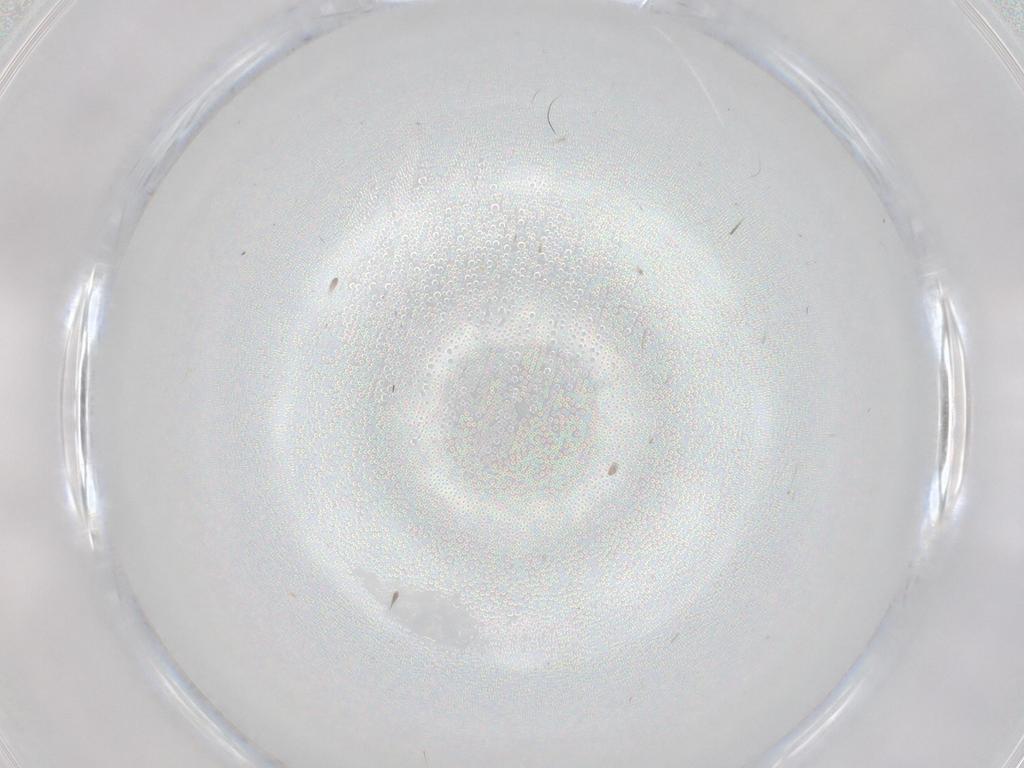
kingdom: Animalia
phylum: Arthropoda
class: Insecta
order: Diptera
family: Sciaridae
